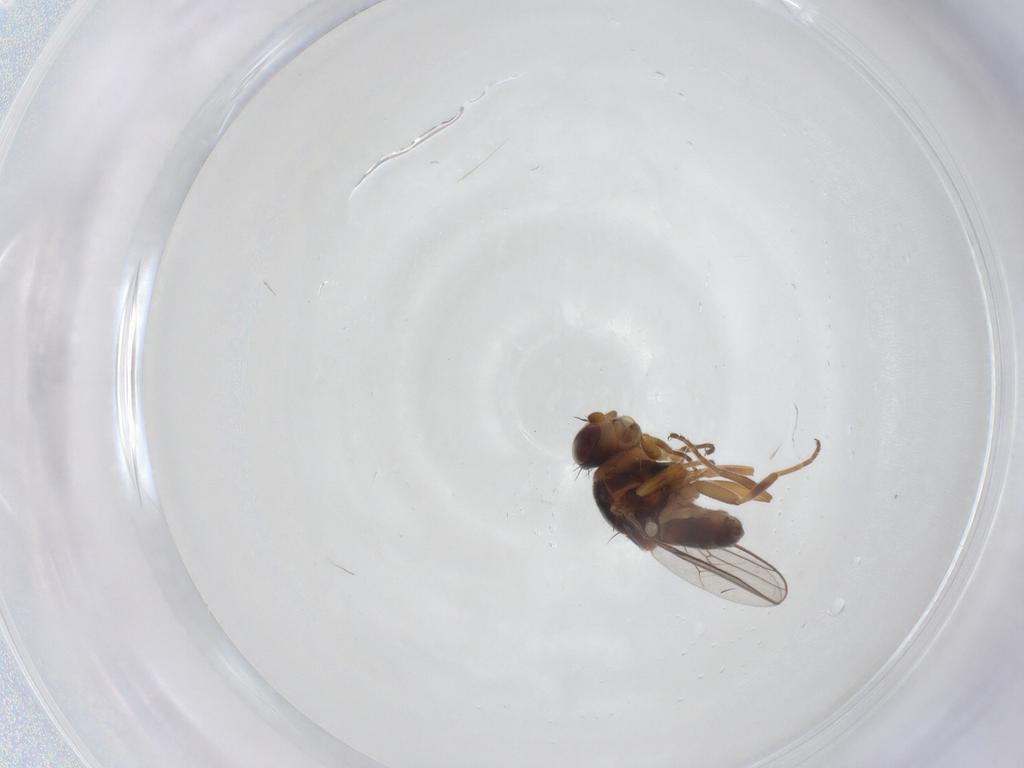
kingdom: Animalia
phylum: Arthropoda
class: Insecta
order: Diptera
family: Chloropidae
